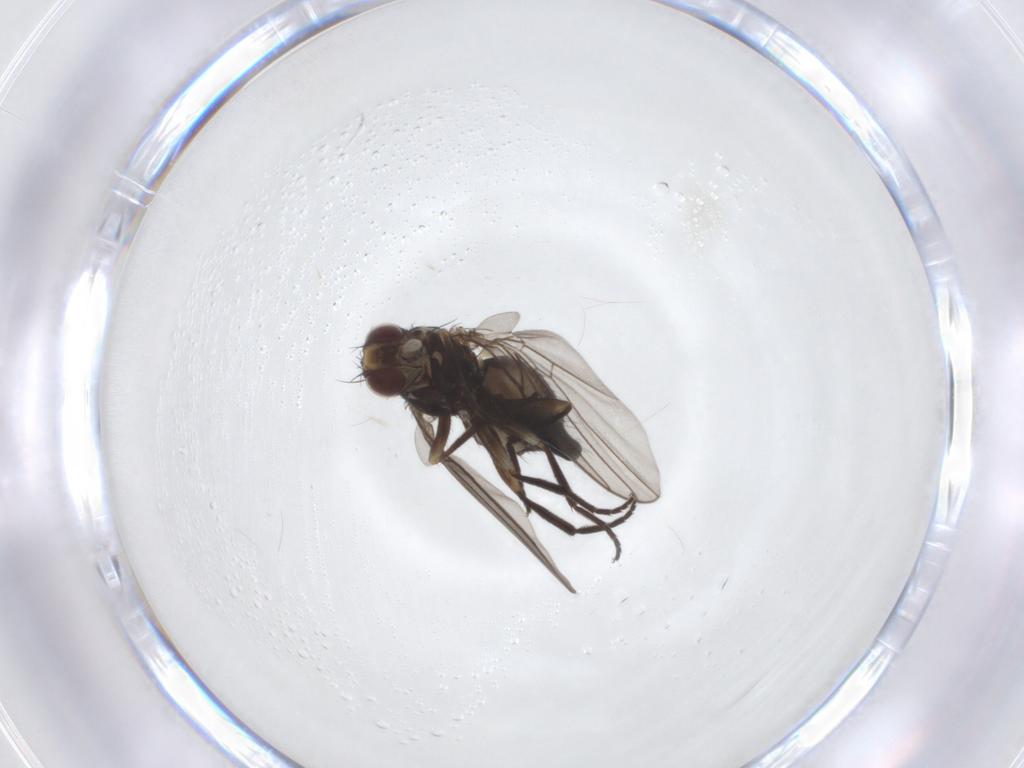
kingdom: Animalia
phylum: Arthropoda
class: Insecta
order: Diptera
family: Agromyzidae
